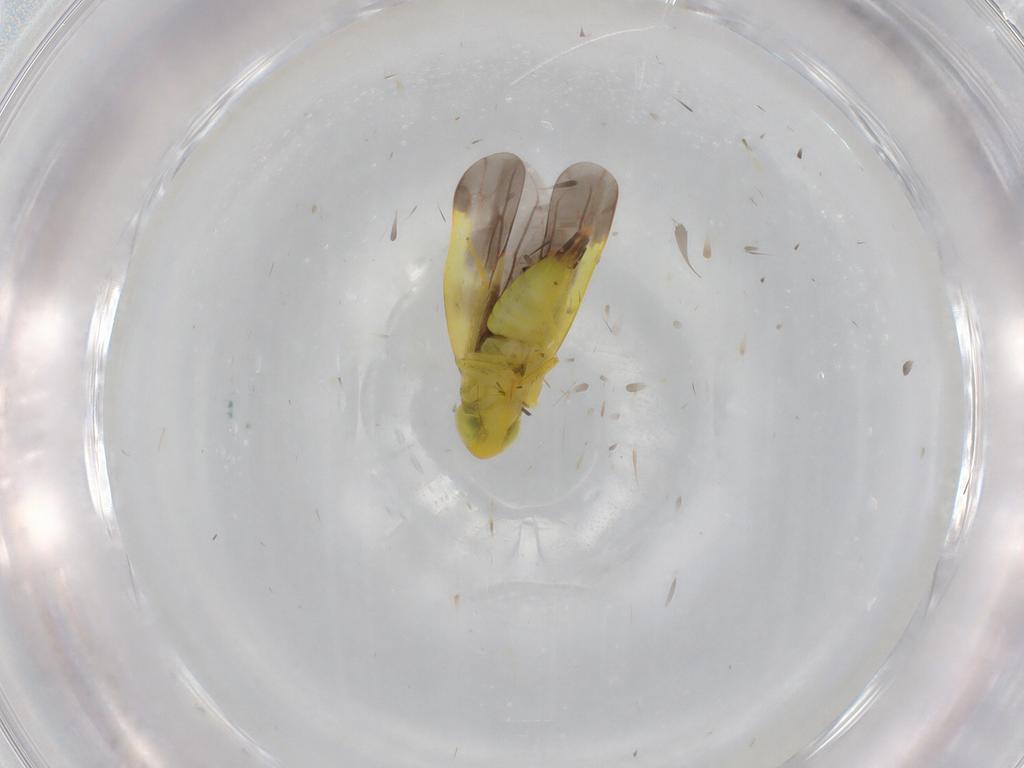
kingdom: Animalia
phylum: Arthropoda
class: Insecta
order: Hemiptera
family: Cicadellidae
